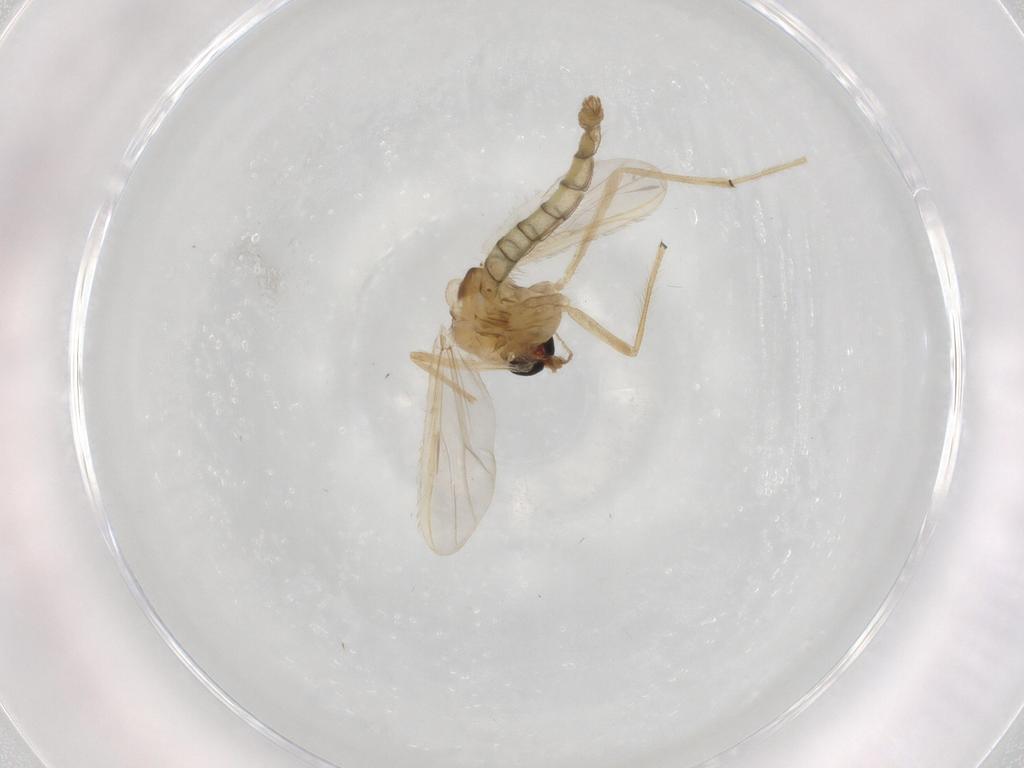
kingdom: Animalia
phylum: Arthropoda
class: Insecta
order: Diptera
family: Chironomidae
